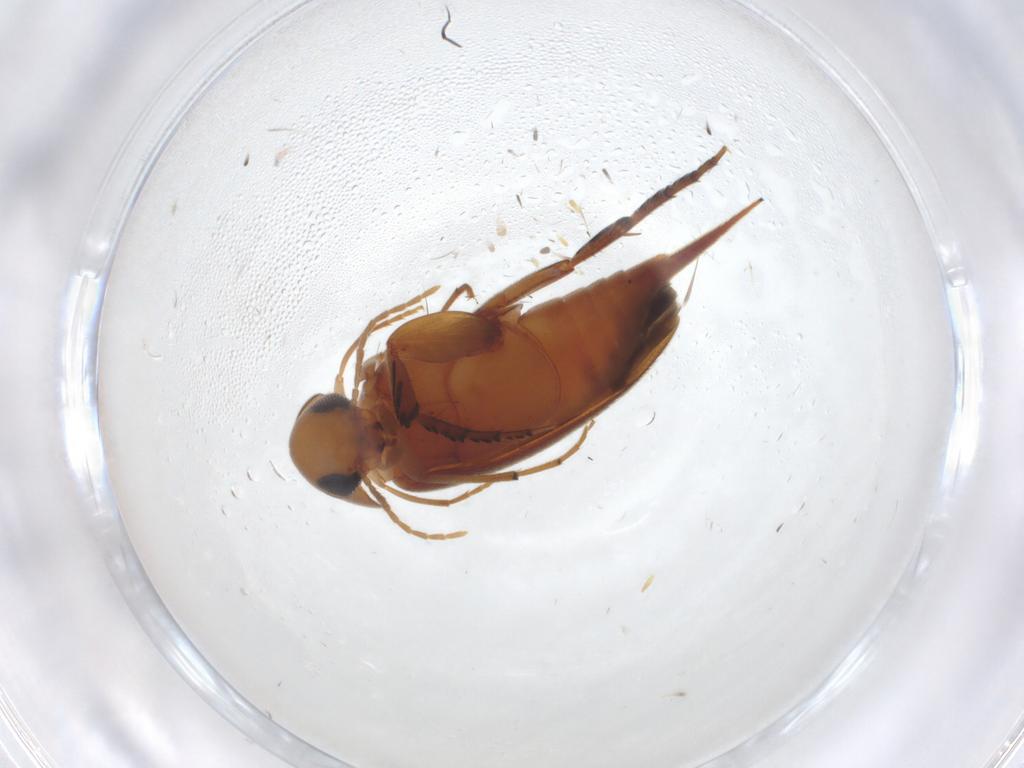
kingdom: Animalia
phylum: Arthropoda
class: Insecta
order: Coleoptera
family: Mordellidae
